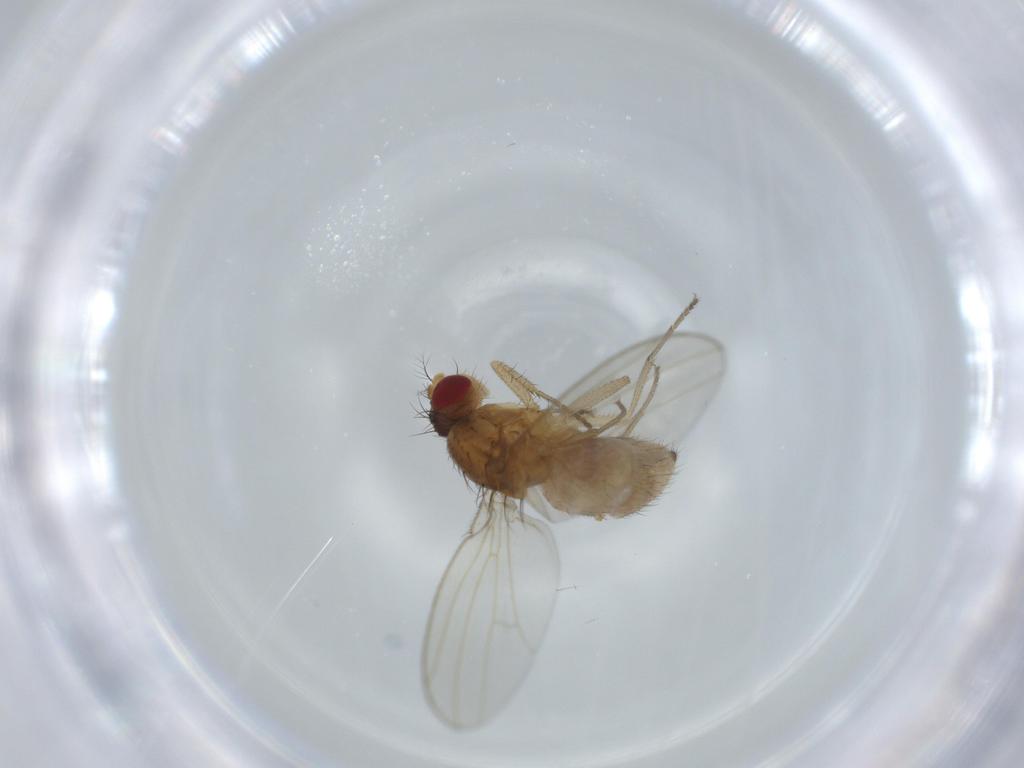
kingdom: Animalia
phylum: Arthropoda
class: Insecta
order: Diptera
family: Drosophilidae
